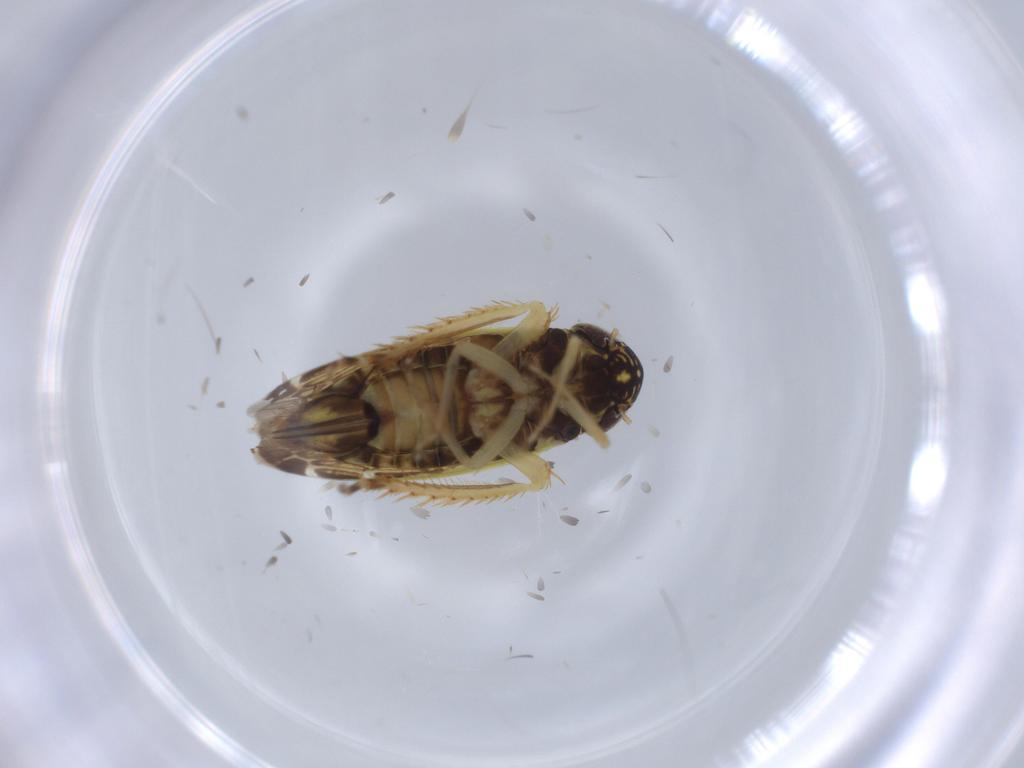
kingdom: Animalia
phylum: Arthropoda
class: Insecta
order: Hemiptera
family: Cicadellidae
